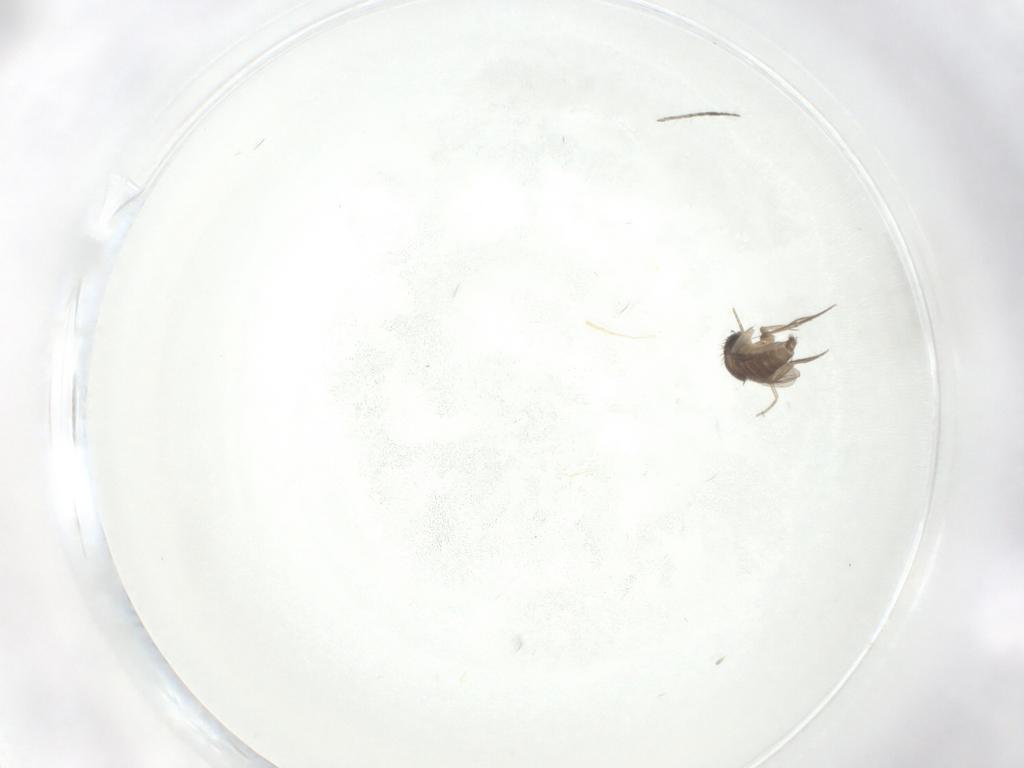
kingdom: Animalia
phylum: Arthropoda
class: Insecta
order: Diptera
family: Phoridae
